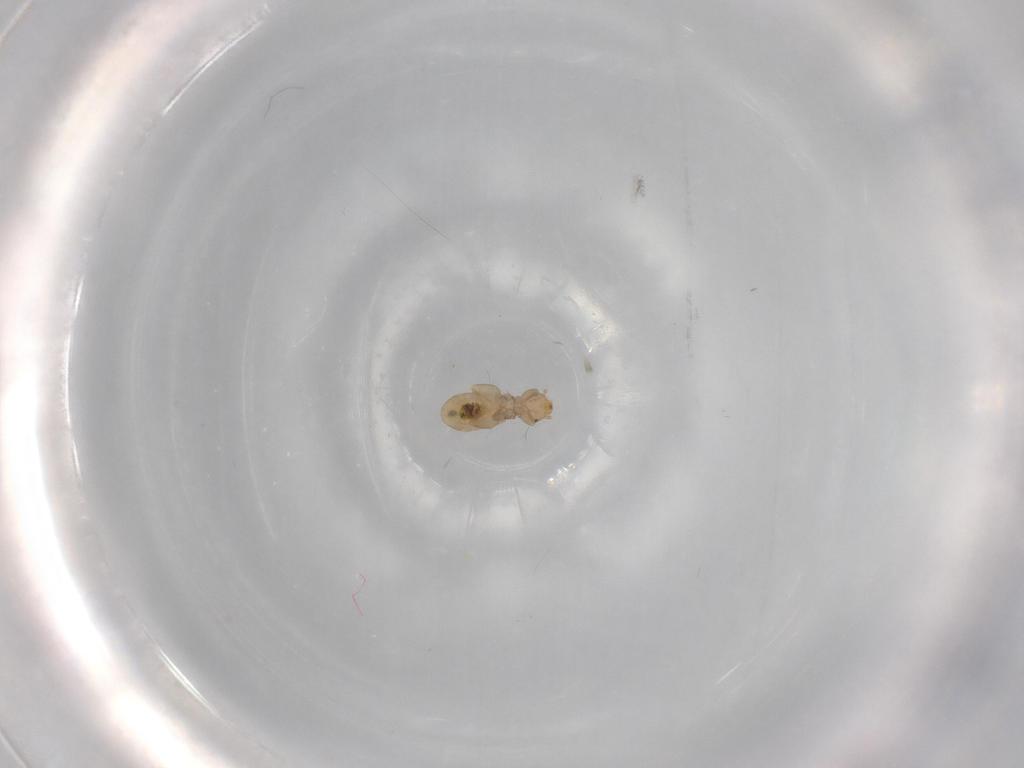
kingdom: Animalia
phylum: Arthropoda
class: Insecta
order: Psocodea
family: Liposcelididae
